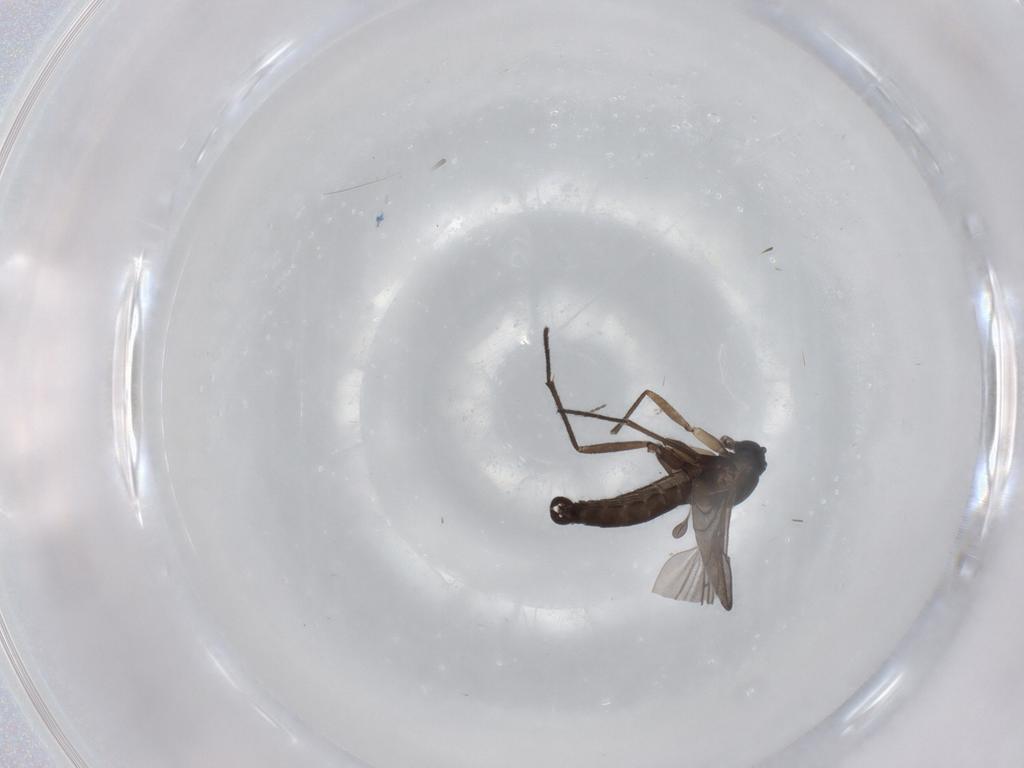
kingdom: Animalia
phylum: Arthropoda
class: Insecta
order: Diptera
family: Sciaridae
